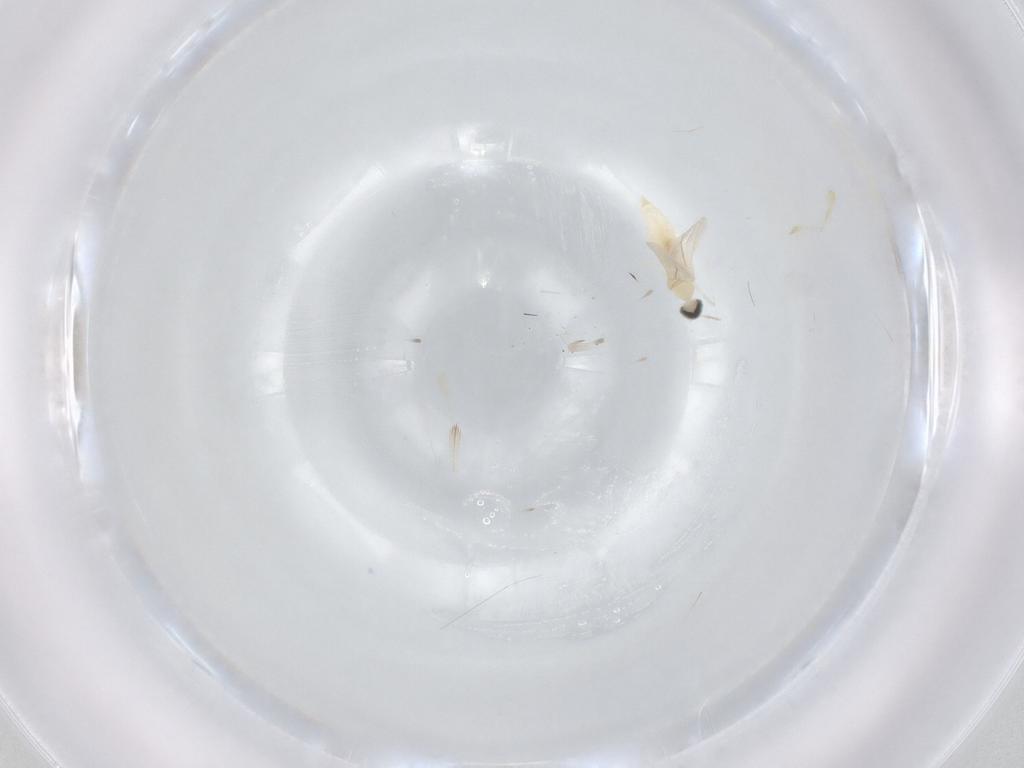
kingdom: Animalia
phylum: Arthropoda
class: Insecta
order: Diptera
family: Cecidomyiidae
